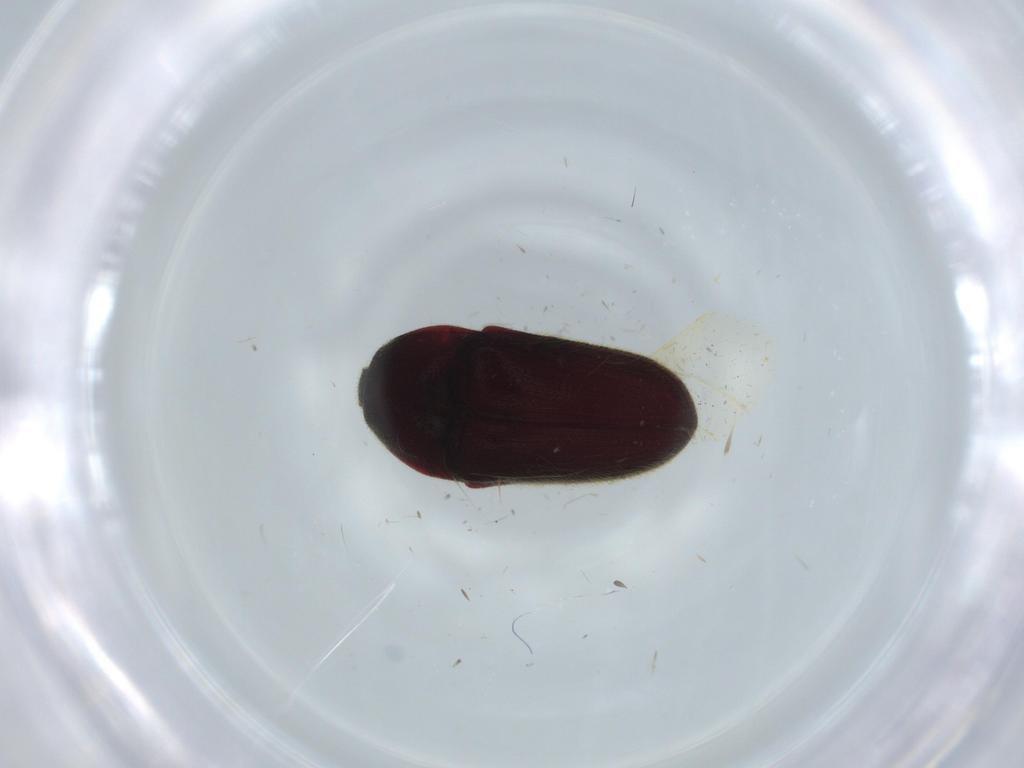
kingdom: Animalia
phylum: Arthropoda
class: Insecta
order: Coleoptera
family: Throscidae
